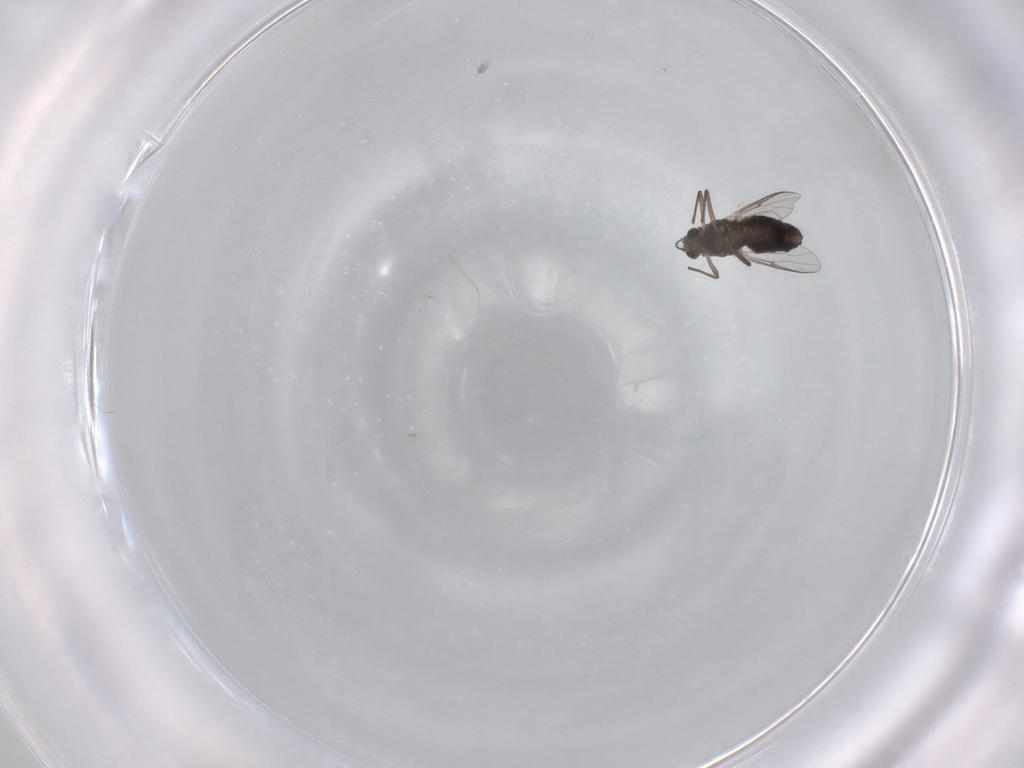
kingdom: Animalia
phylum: Arthropoda
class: Insecta
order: Diptera
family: Chironomidae
